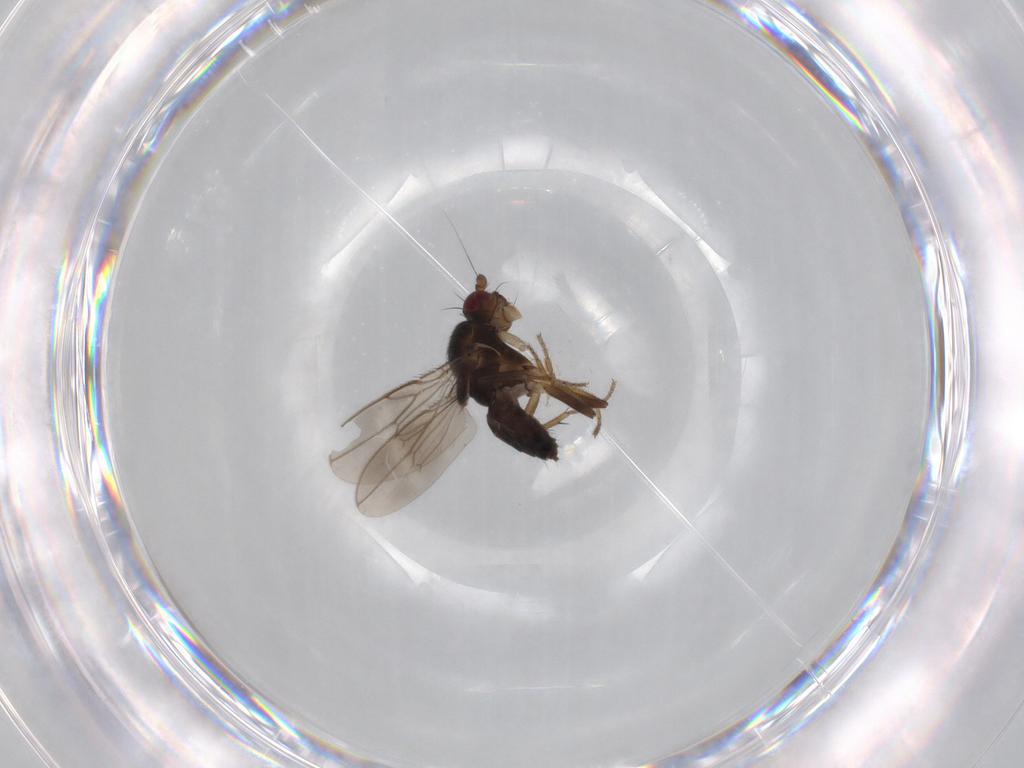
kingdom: Animalia
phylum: Arthropoda
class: Insecta
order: Diptera
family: Sphaeroceridae
